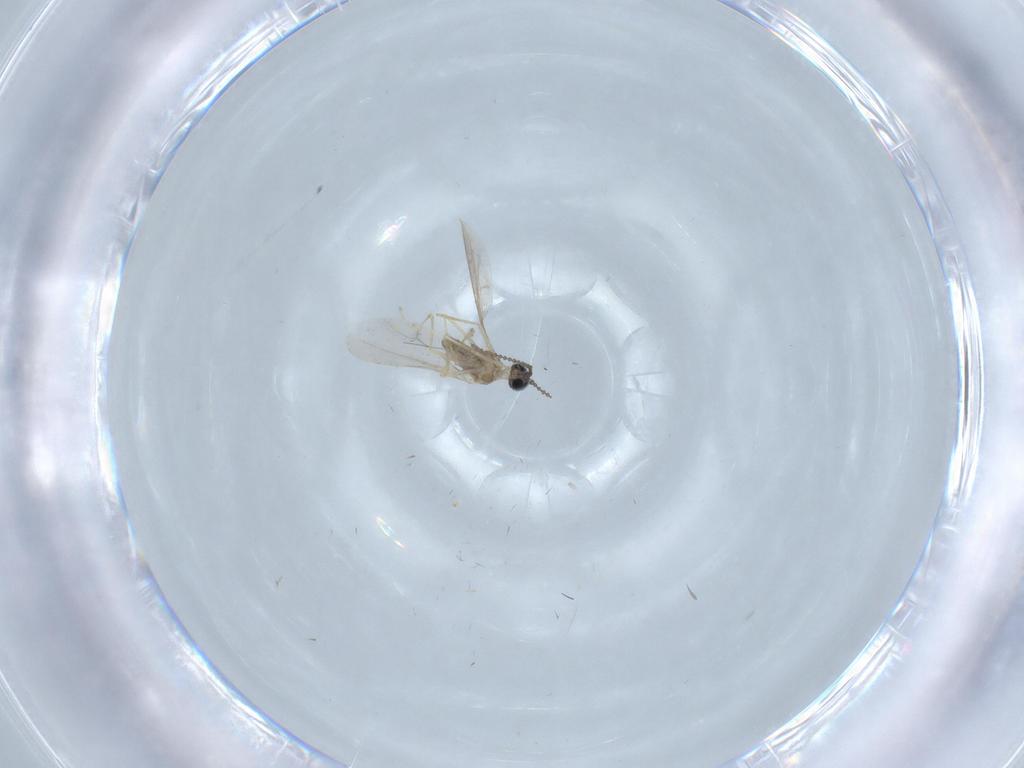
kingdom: Animalia
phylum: Arthropoda
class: Insecta
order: Diptera
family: Cecidomyiidae
